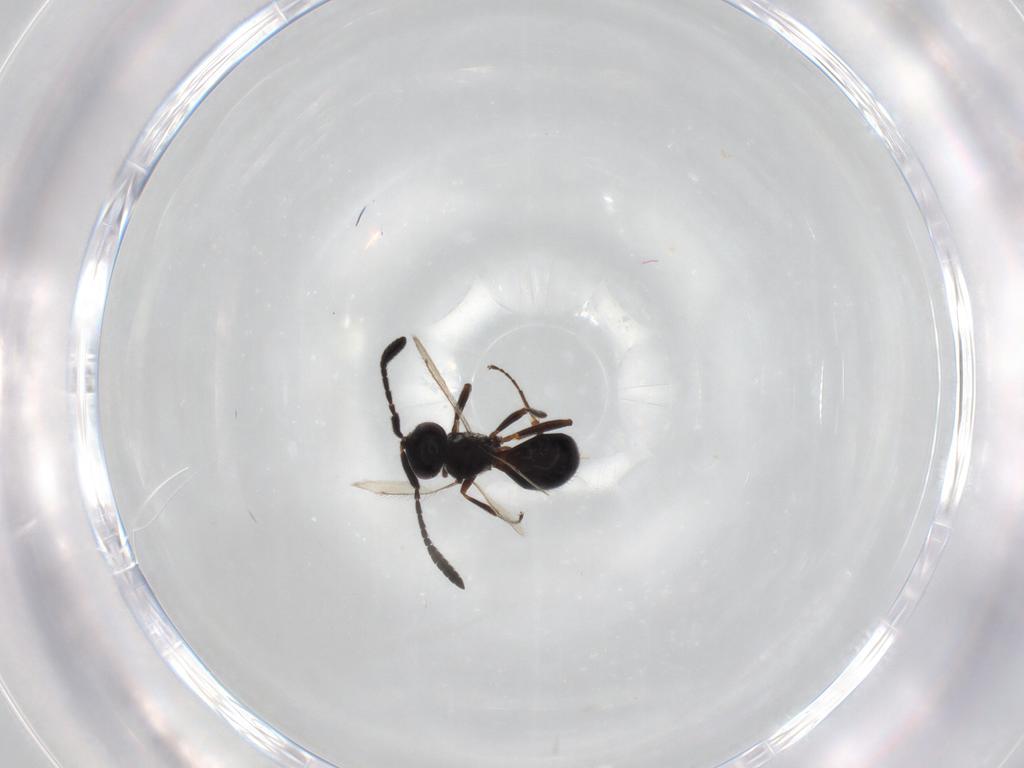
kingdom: Animalia
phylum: Arthropoda
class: Insecta
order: Hymenoptera
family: Scelionidae
